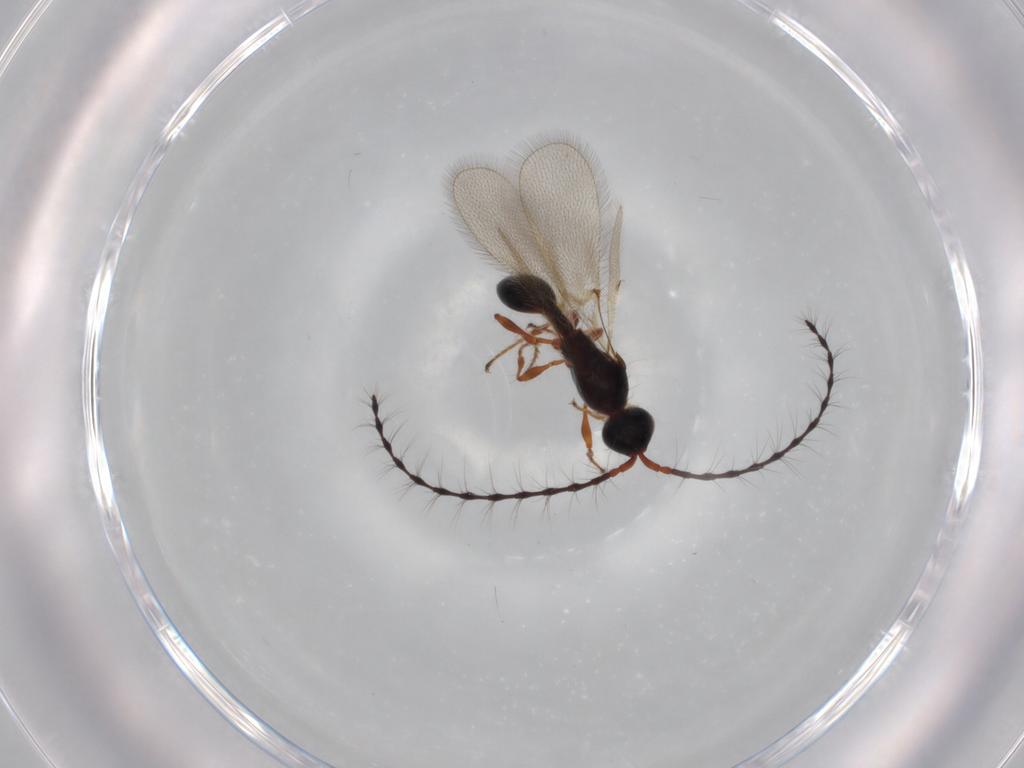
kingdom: Animalia
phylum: Arthropoda
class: Insecta
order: Hymenoptera
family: Diapriidae
